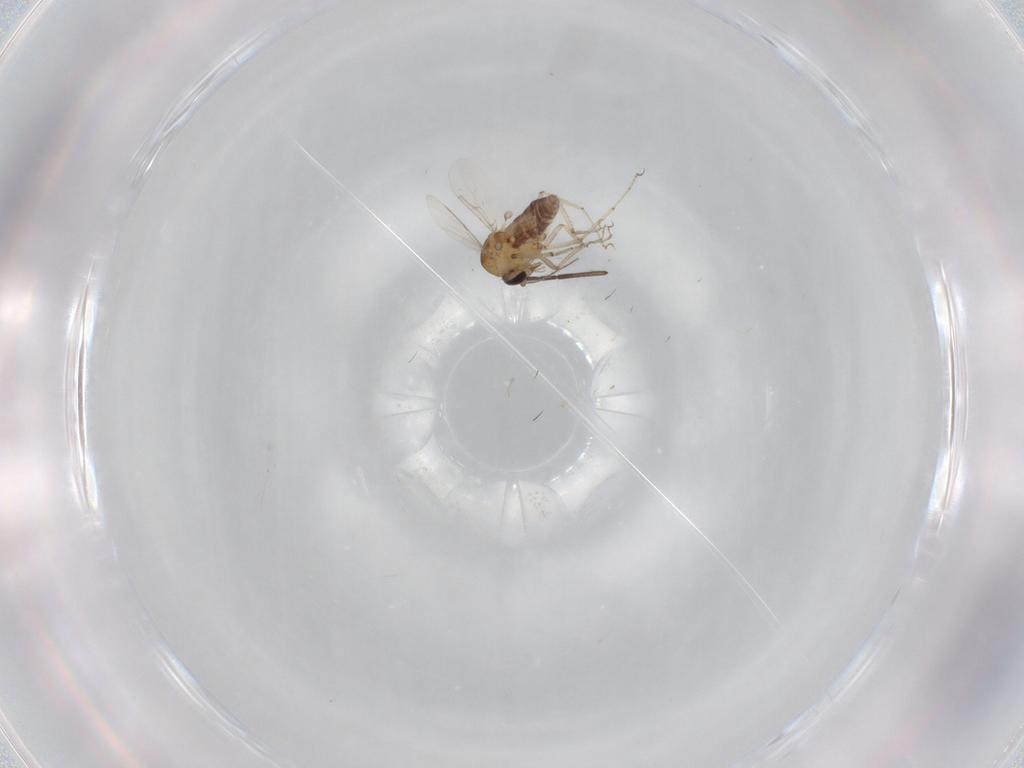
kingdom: Animalia
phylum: Arthropoda
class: Insecta
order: Diptera
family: Ceratopogonidae
